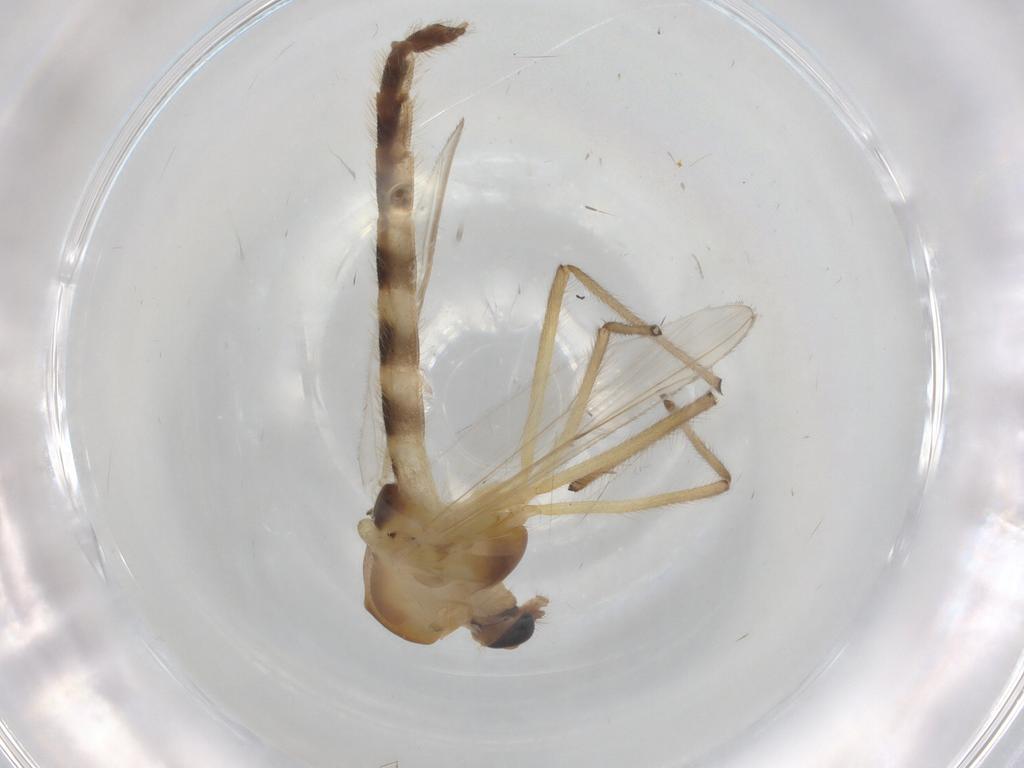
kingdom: Animalia
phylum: Arthropoda
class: Insecta
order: Diptera
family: Chironomidae
